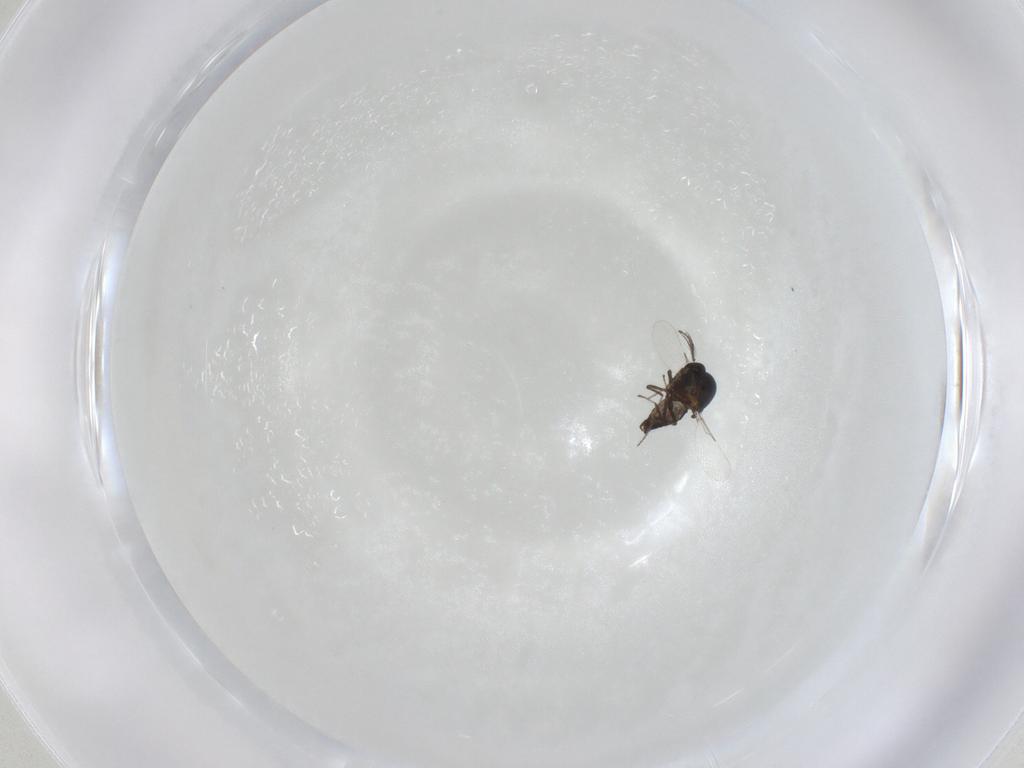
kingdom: Animalia
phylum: Arthropoda
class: Insecta
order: Diptera
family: Ceratopogonidae
